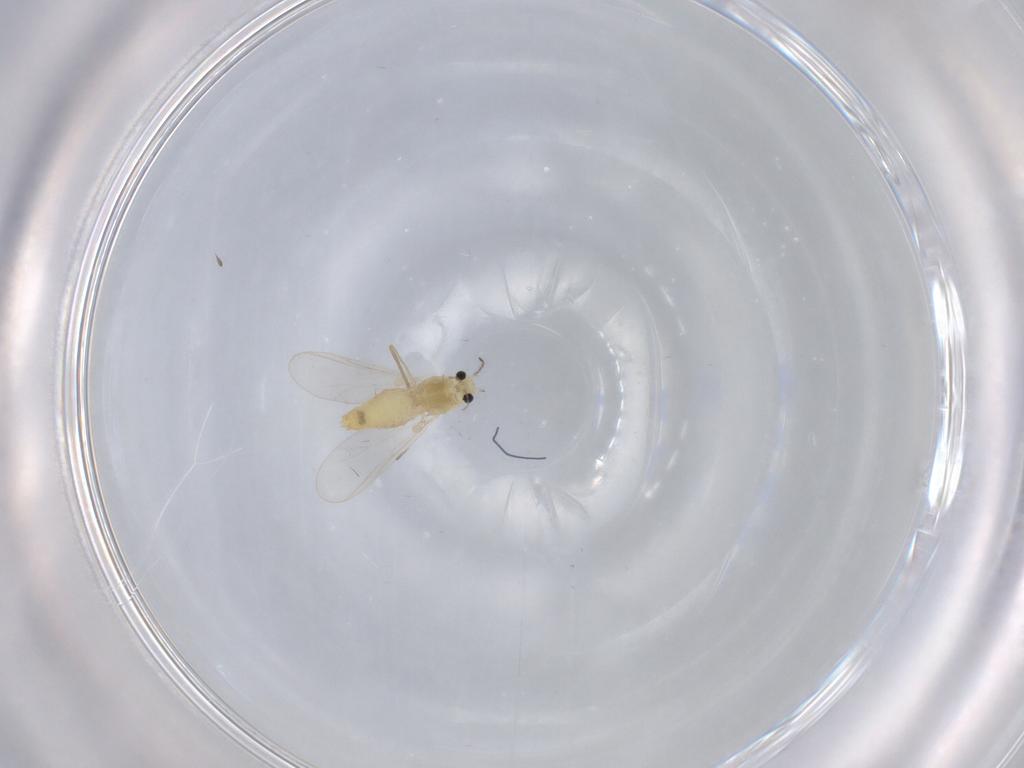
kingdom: Animalia
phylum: Arthropoda
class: Insecta
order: Diptera
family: Chironomidae
